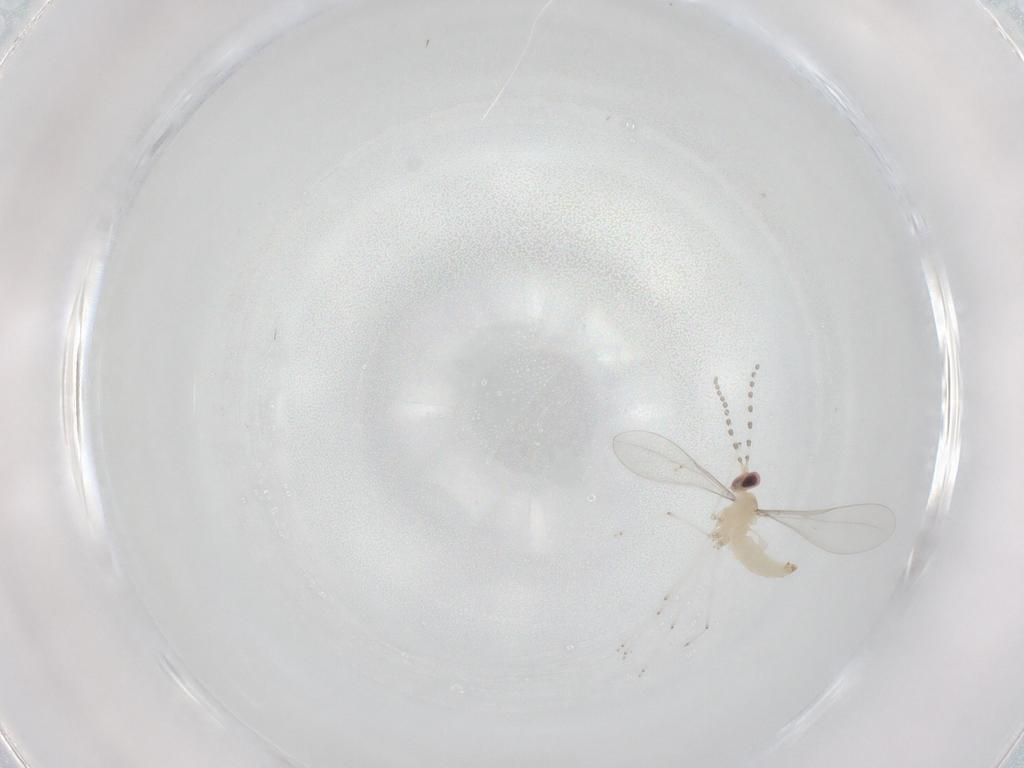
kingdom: Animalia
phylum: Arthropoda
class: Insecta
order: Diptera
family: Cecidomyiidae
